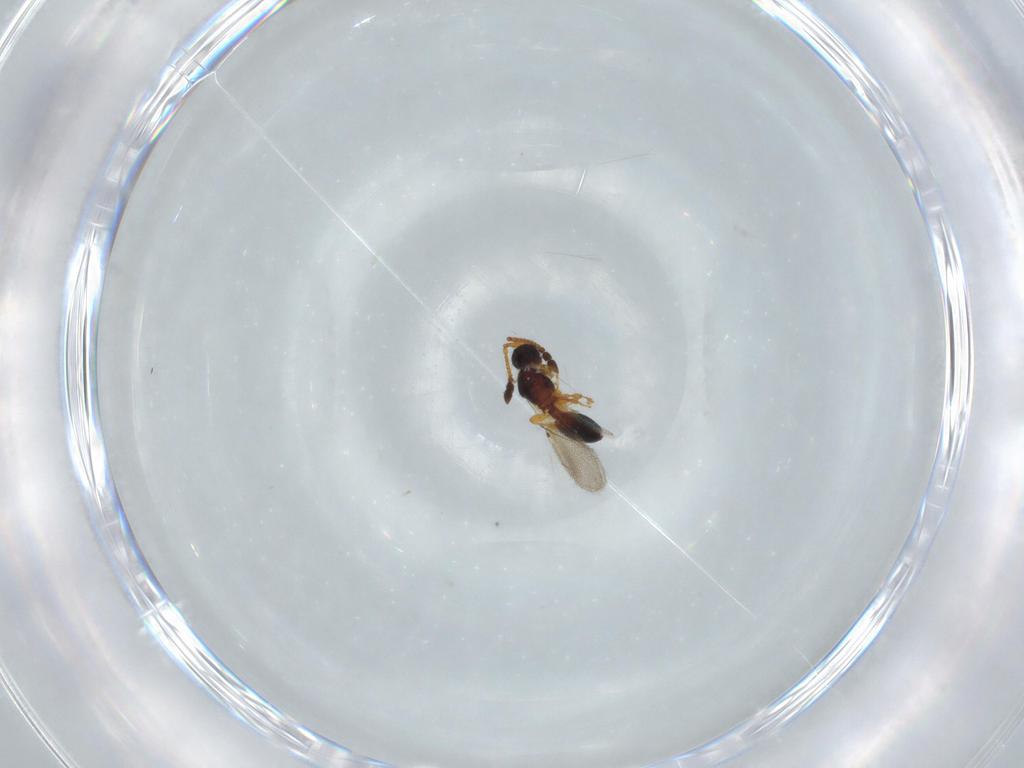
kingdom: Animalia
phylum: Arthropoda
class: Insecta
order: Hymenoptera
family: Diapriidae
